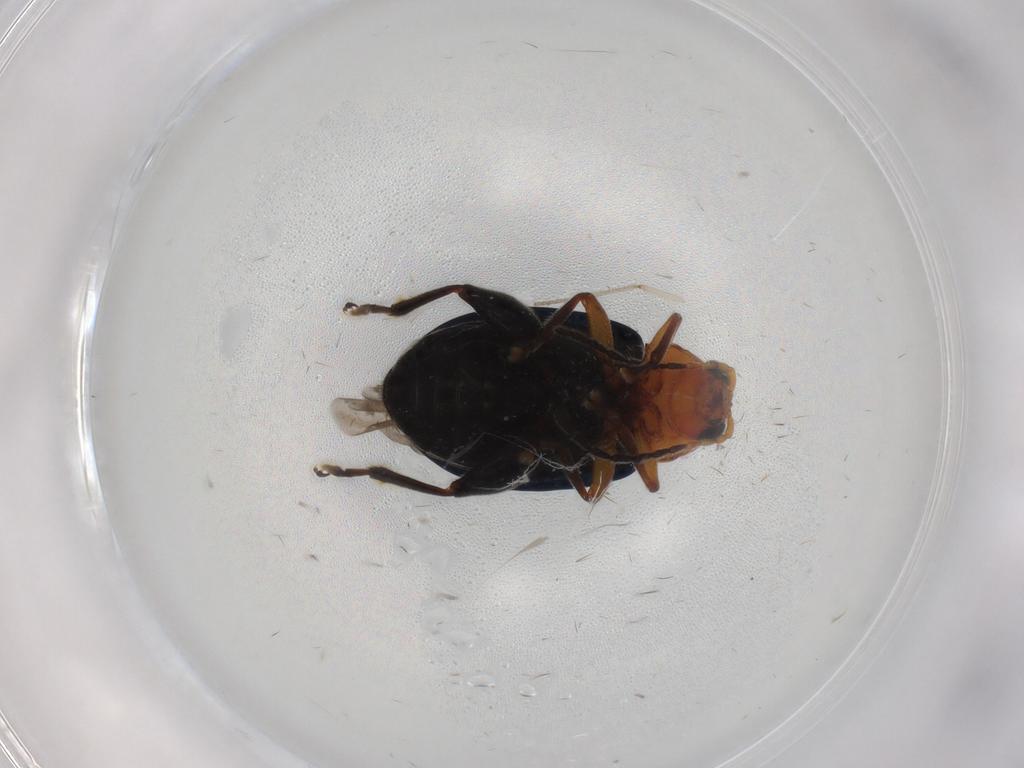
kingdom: Animalia
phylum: Arthropoda
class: Insecta
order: Coleoptera
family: Chrysomelidae
